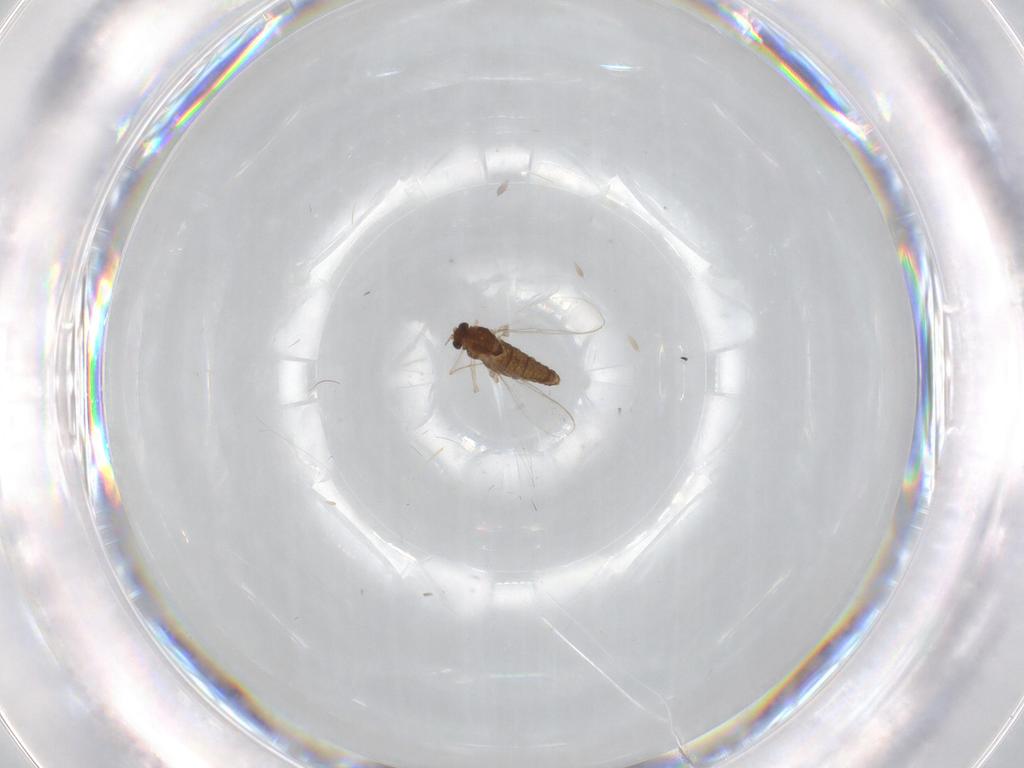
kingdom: Animalia
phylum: Arthropoda
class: Insecta
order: Diptera
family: Chironomidae
